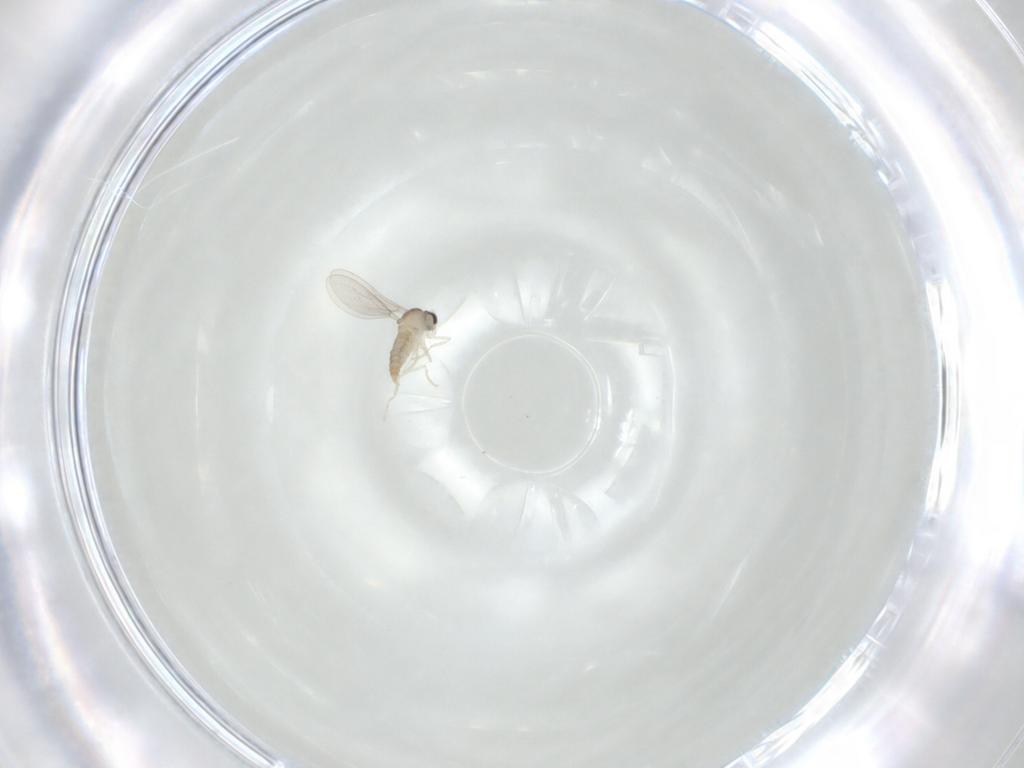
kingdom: Animalia
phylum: Arthropoda
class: Insecta
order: Diptera
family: Cecidomyiidae
